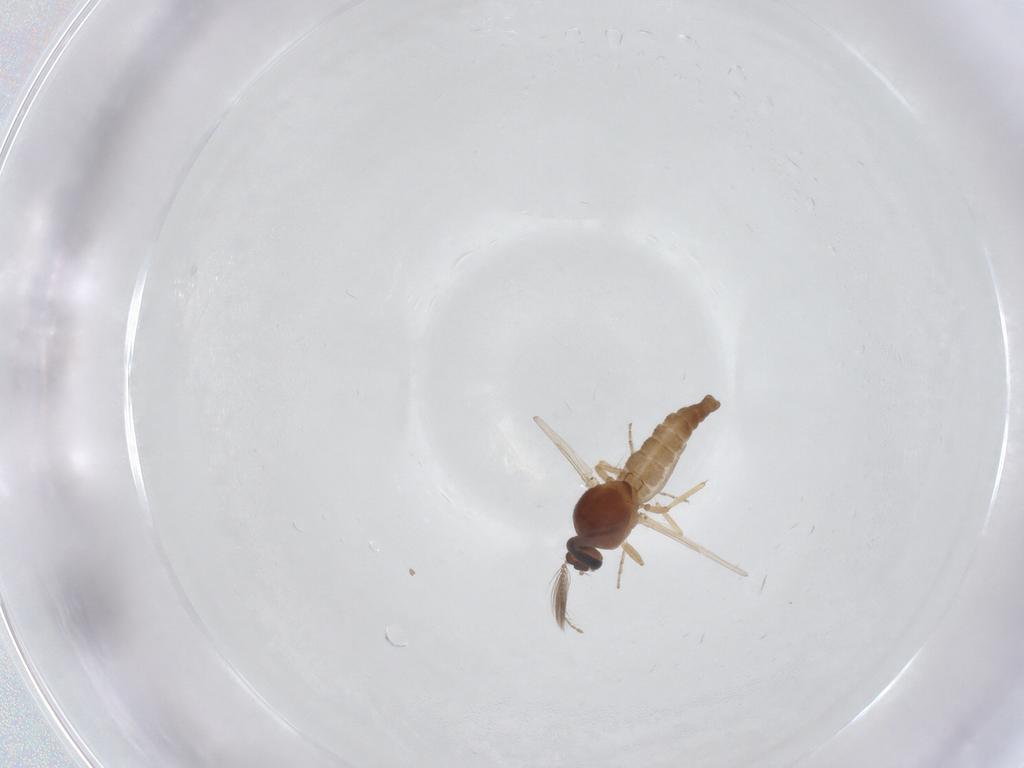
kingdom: Animalia
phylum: Arthropoda
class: Insecta
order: Diptera
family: Ceratopogonidae
